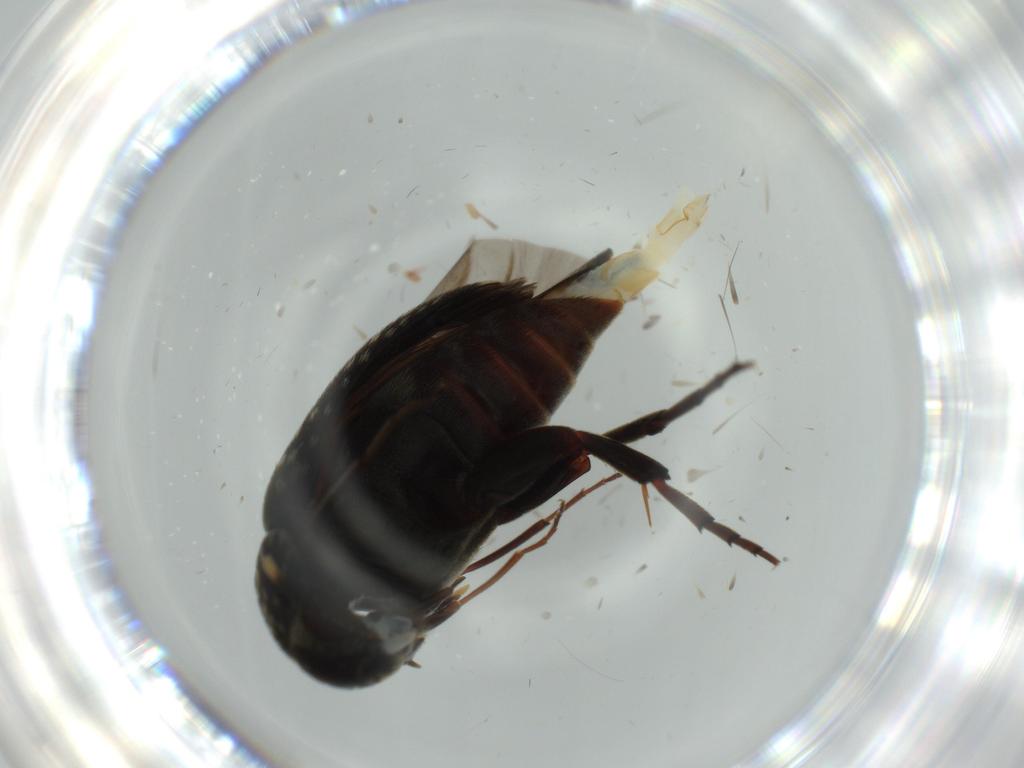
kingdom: Animalia
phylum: Arthropoda
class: Insecta
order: Coleoptera
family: Mordellidae
